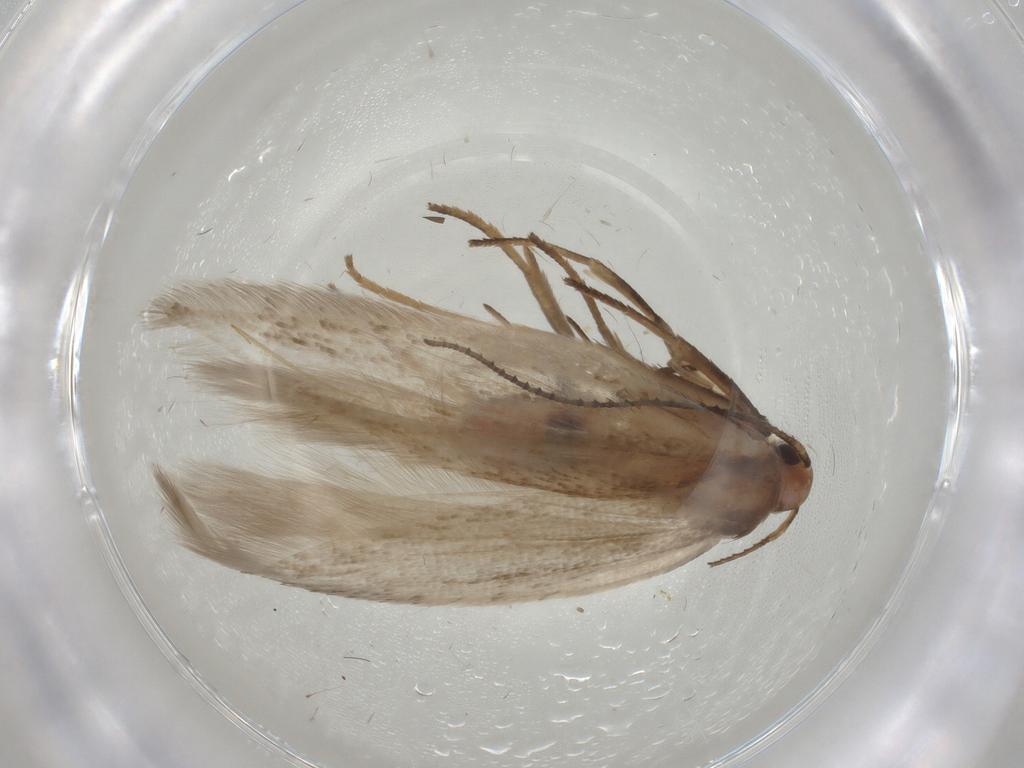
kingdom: Animalia
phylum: Arthropoda
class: Insecta
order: Lepidoptera
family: Gelechiidae
